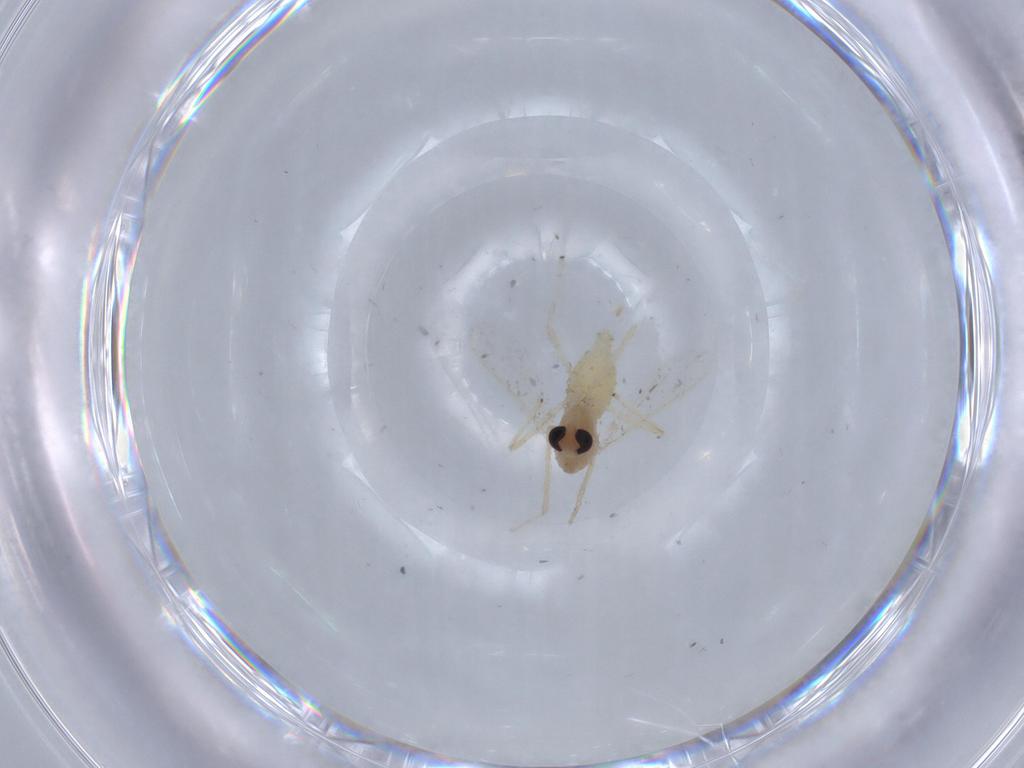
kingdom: Animalia
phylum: Arthropoda
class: Insecta
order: Diptera
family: Chironomidae
